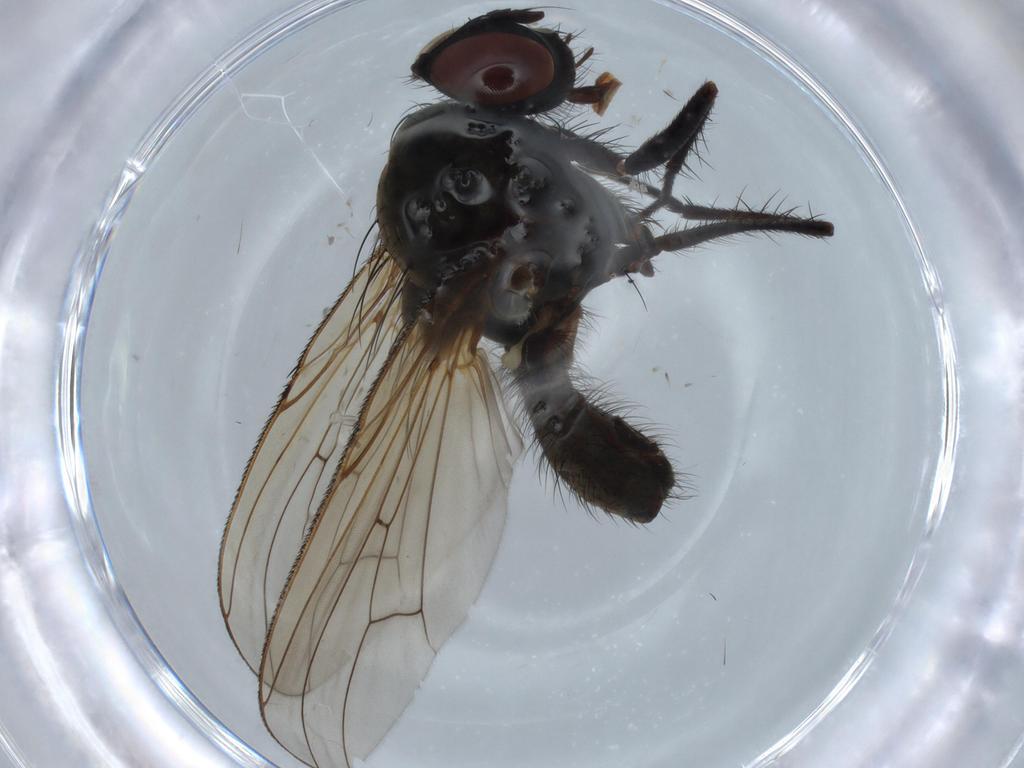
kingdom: Animalia
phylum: Arthropoda
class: Insecta
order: Diptera
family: Anthomyiidae
